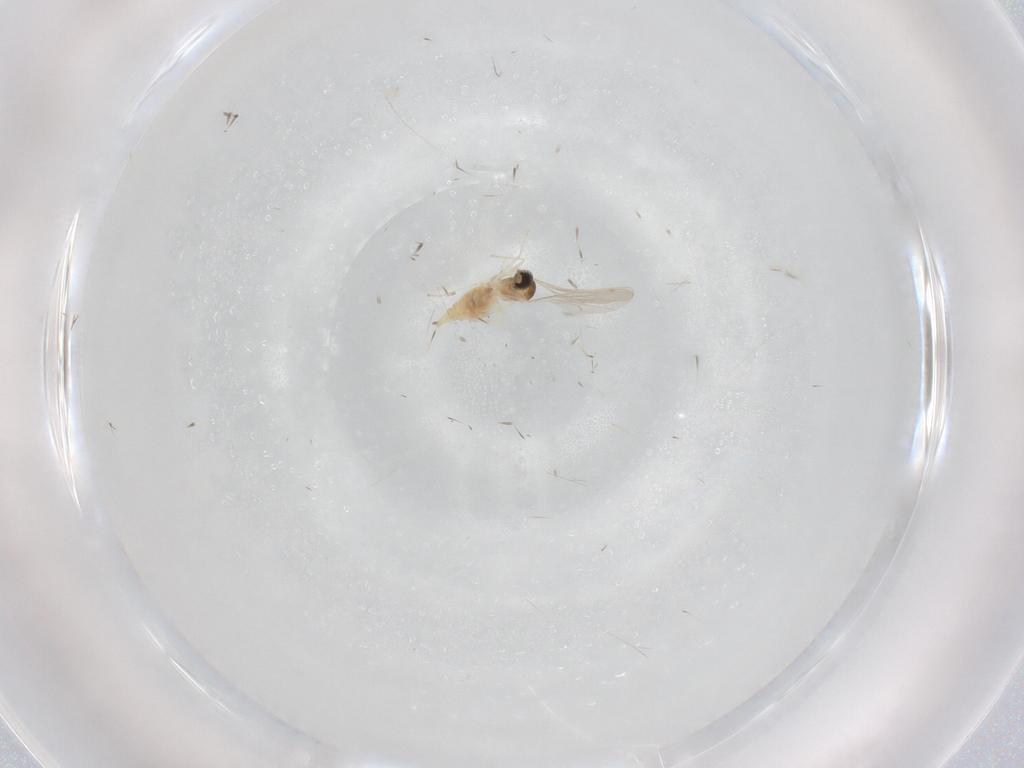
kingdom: Animalia
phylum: Arthropoda
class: Insecta
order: Diptera
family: Cecidomyiidae
